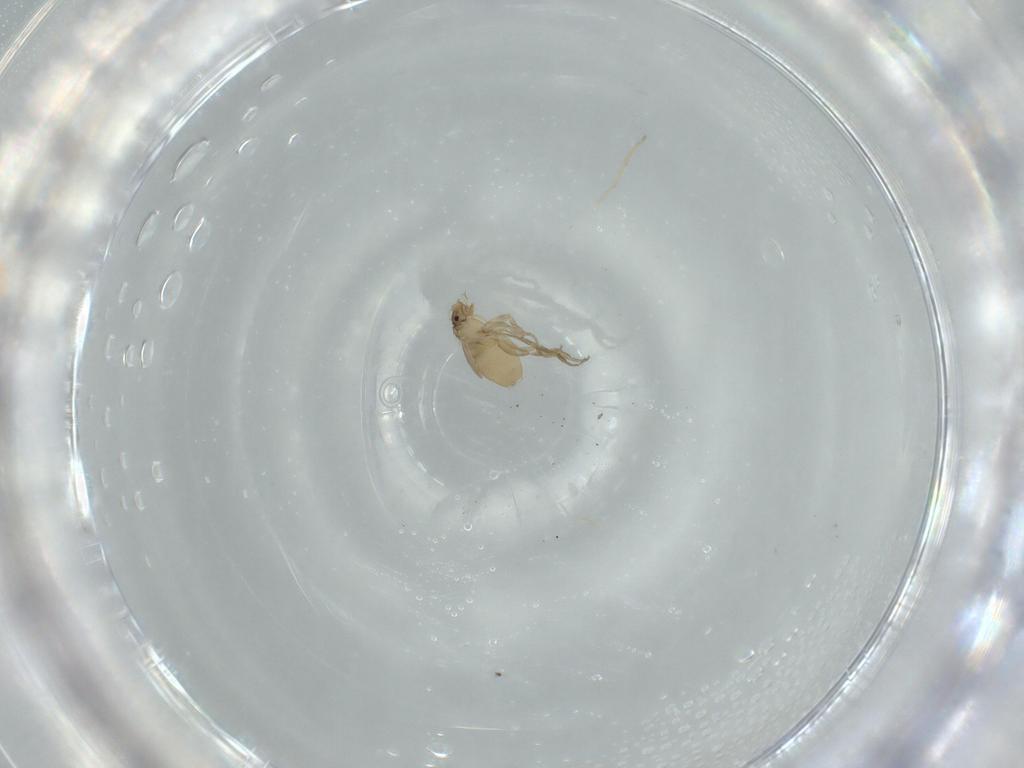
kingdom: Animalia
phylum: Arthropoda
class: Insecta
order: Diptera
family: Phoridae
